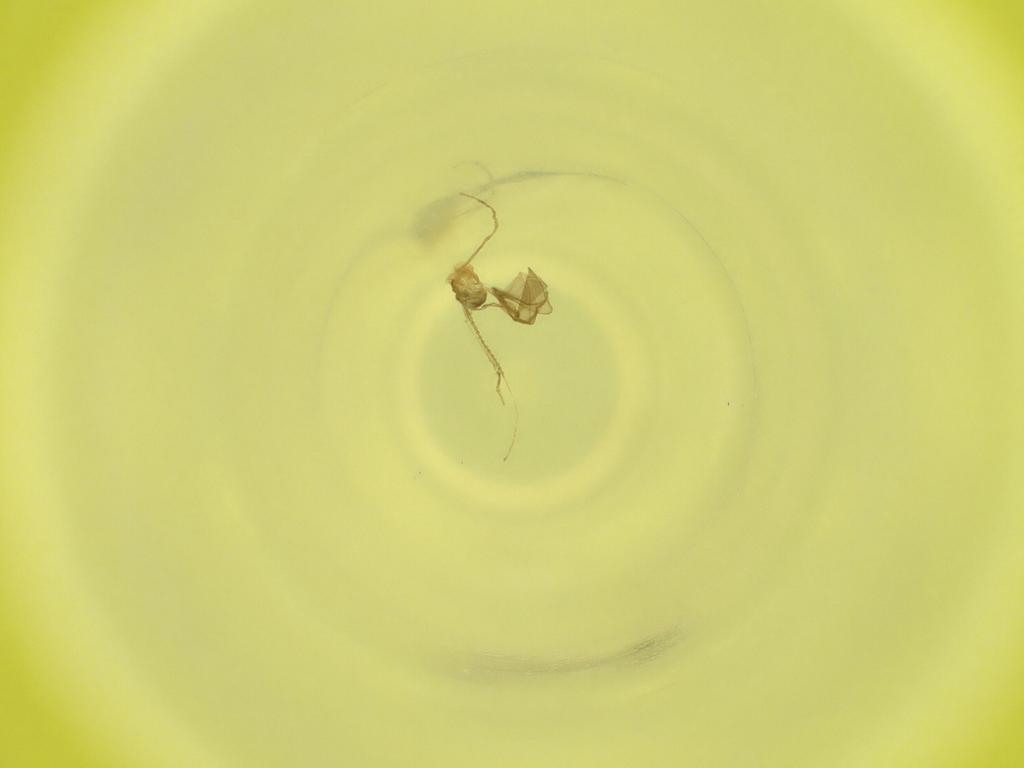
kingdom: Animalia
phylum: Arthropoda
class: Insecta
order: Diptera
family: Cecidomyiidae
